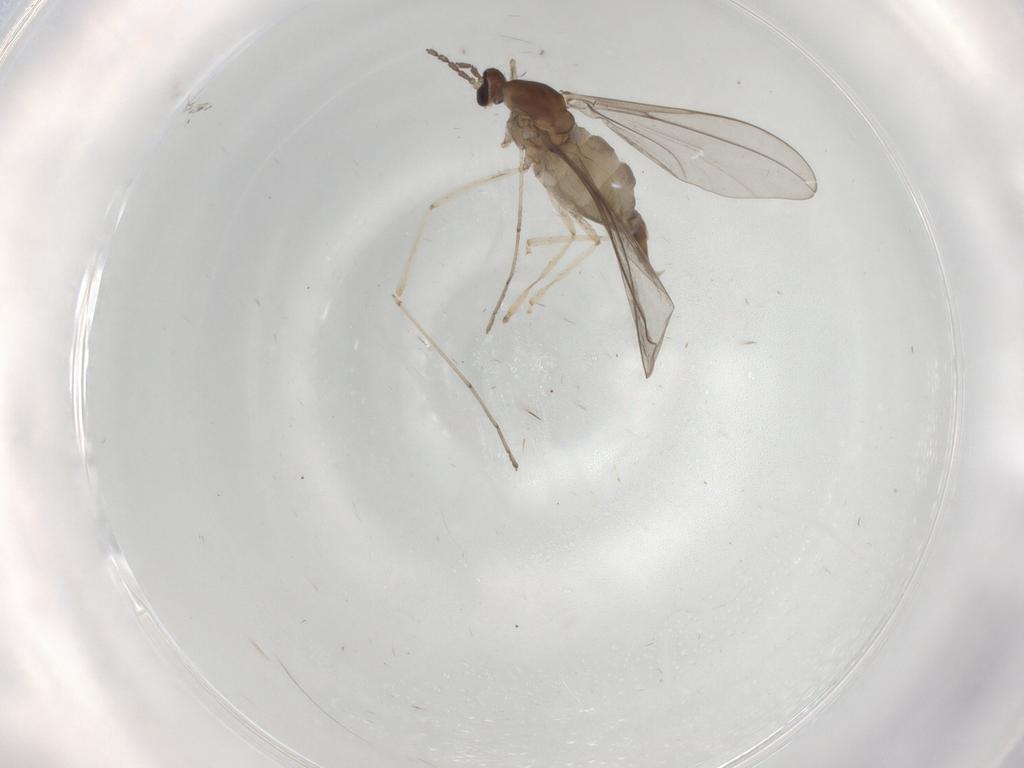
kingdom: Animalia
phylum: Arthropoda
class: Insecta
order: Diptera
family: Cecidomyiidae
